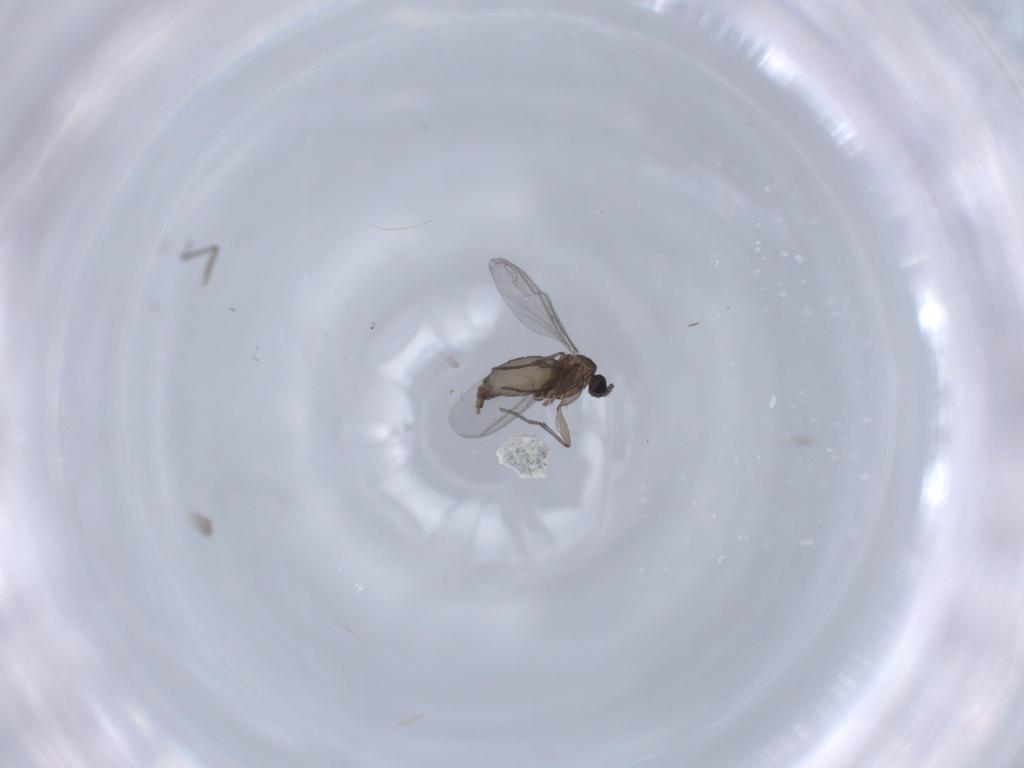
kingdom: Animalia
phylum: Arthropoda
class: Insecta
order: Diptera
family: Sciaridae
